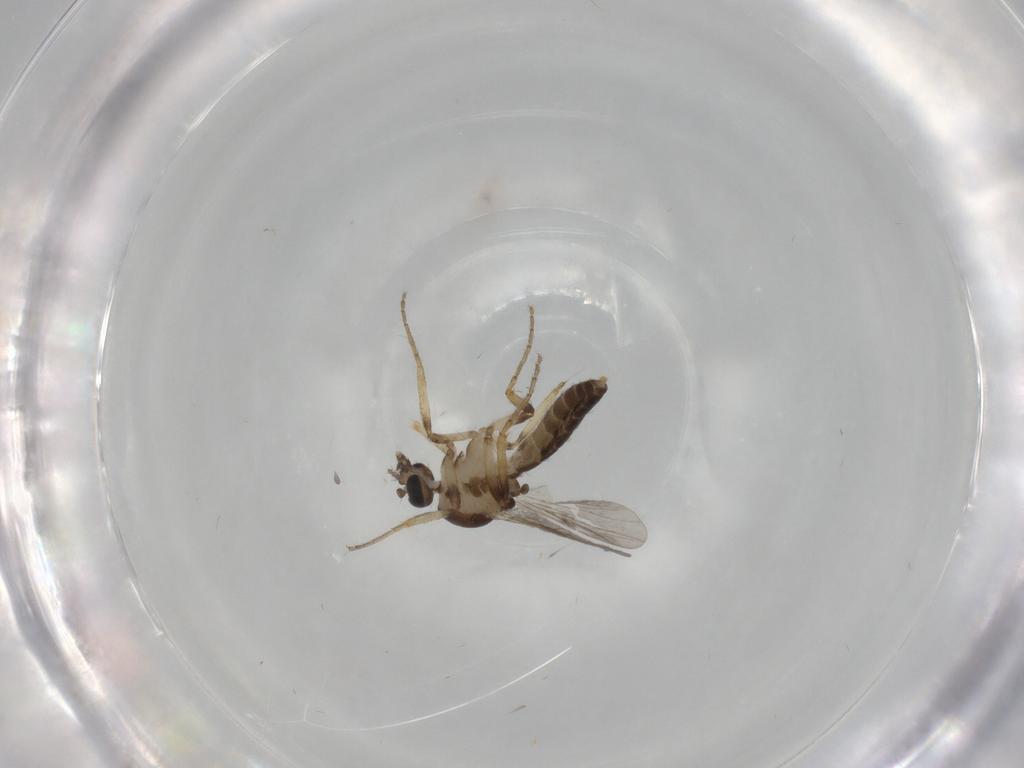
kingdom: Animalia
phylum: Arthropoda
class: Insecta
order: Diptera
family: Ceratopogonidae
